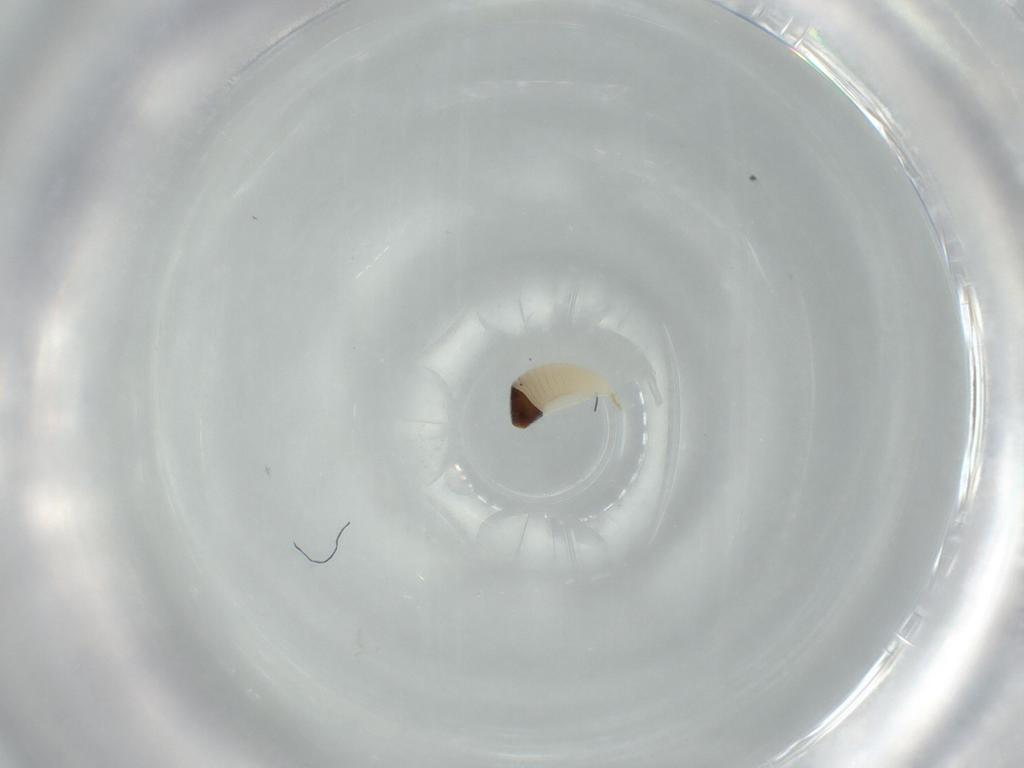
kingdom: Animalia
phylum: Arthropoda
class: Insecta
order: Hymenoptera
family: Ichneumonidae
